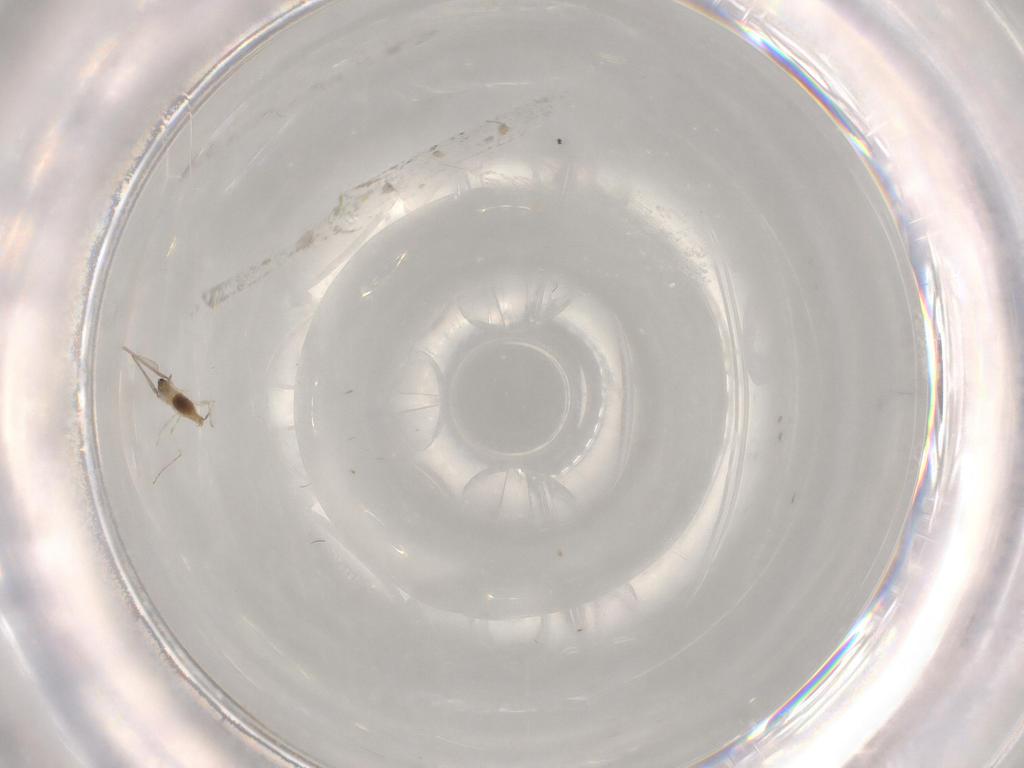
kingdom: Animalia
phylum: Arthropoda
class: Insecta
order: Diptera
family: Cecidomyiidae
